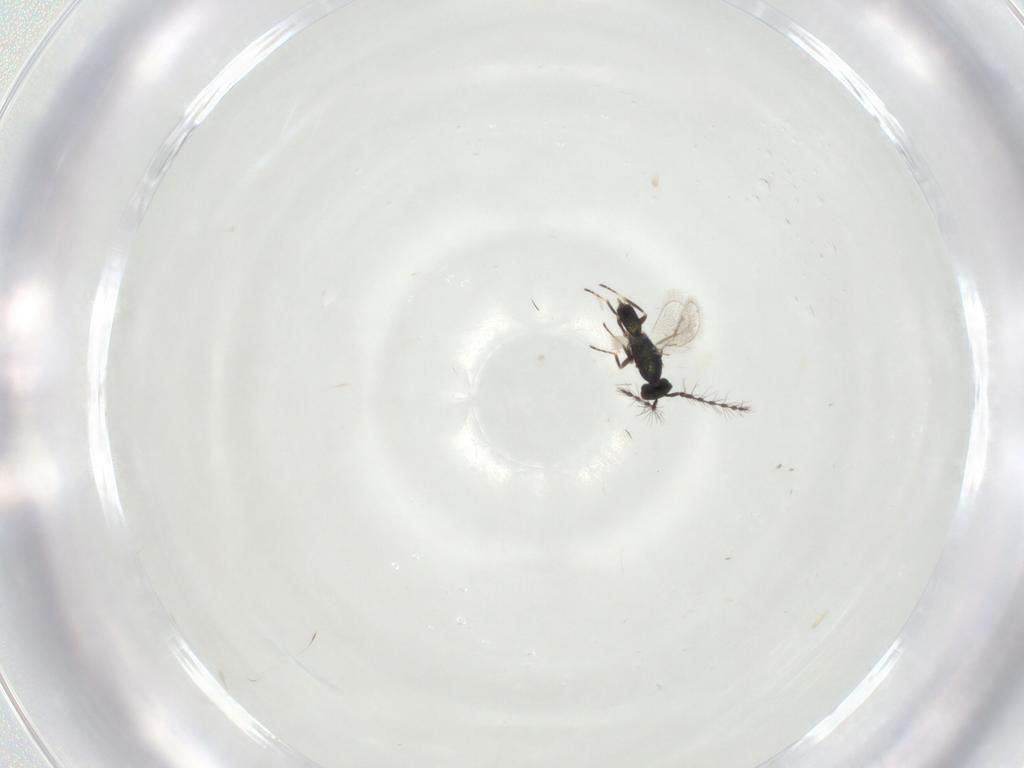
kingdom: Animalia
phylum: Arthropoda
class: Insecta
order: Hymenoptera
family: Eulophidae
